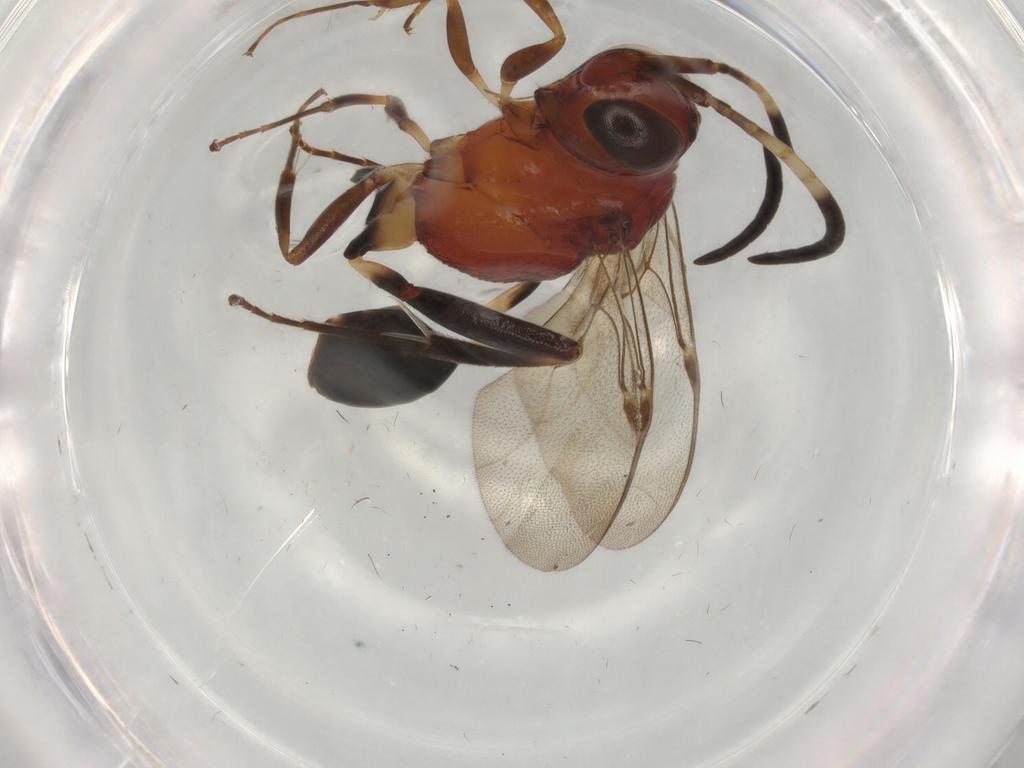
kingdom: Animalia
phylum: Arthropoda
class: Insecta
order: Hymenoptera
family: Evaniidae
